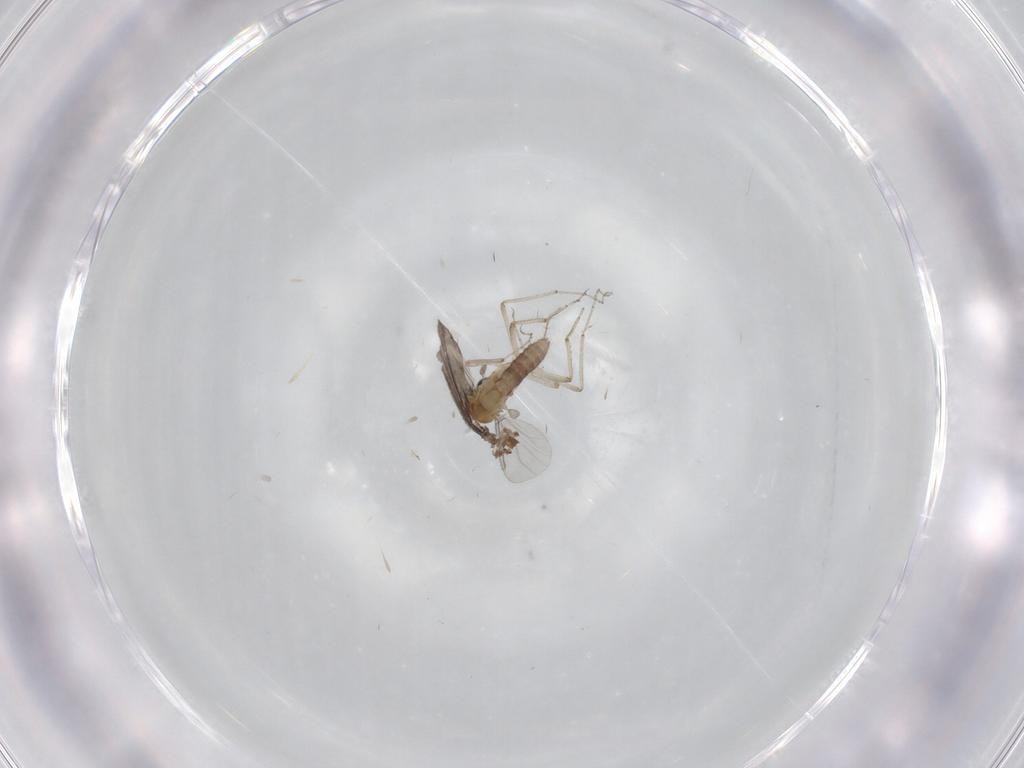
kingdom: Animalia
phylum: Arthropoda
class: Insecta
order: Diptera
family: Ceratopogonidae
